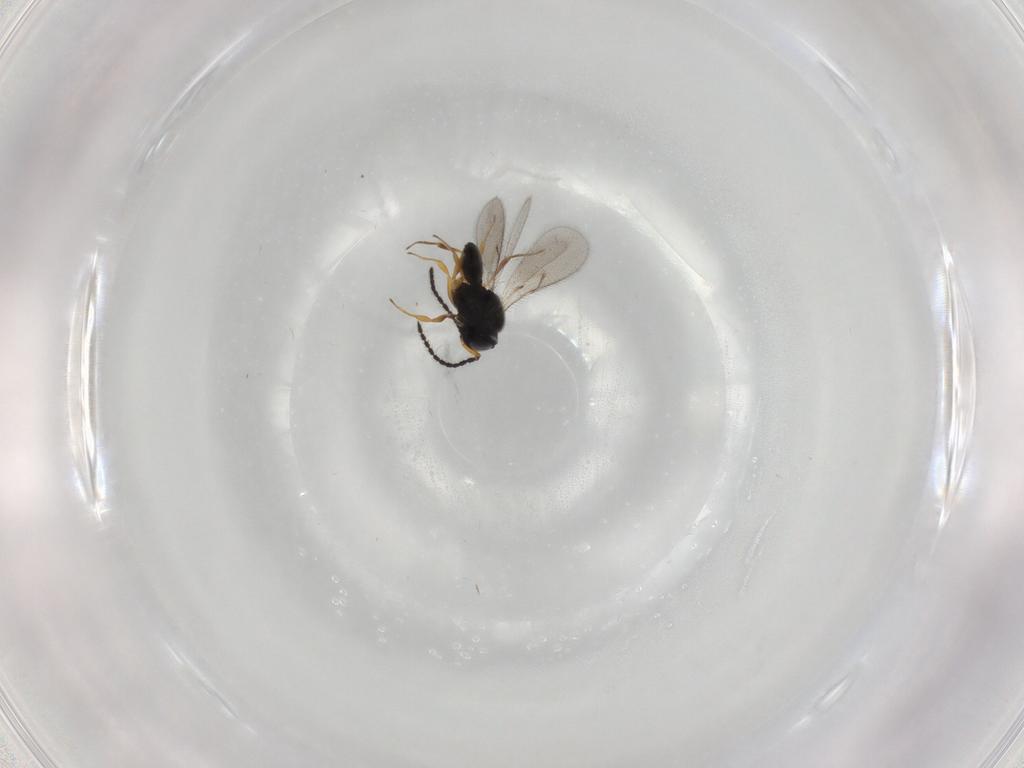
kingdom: Animalia
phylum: Arthropoda
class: Insecta
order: Hymenoptera
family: Scelionidae
